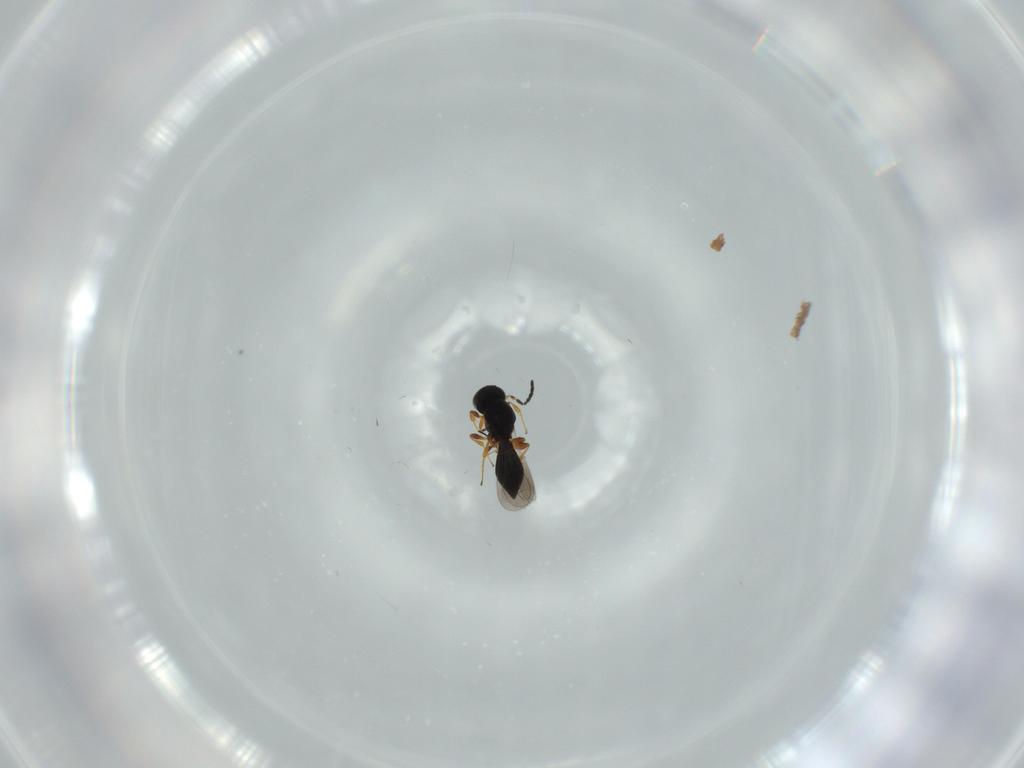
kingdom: Animalia
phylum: Arthropoda
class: Insecta
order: Hymenoptera
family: Platygastridae
